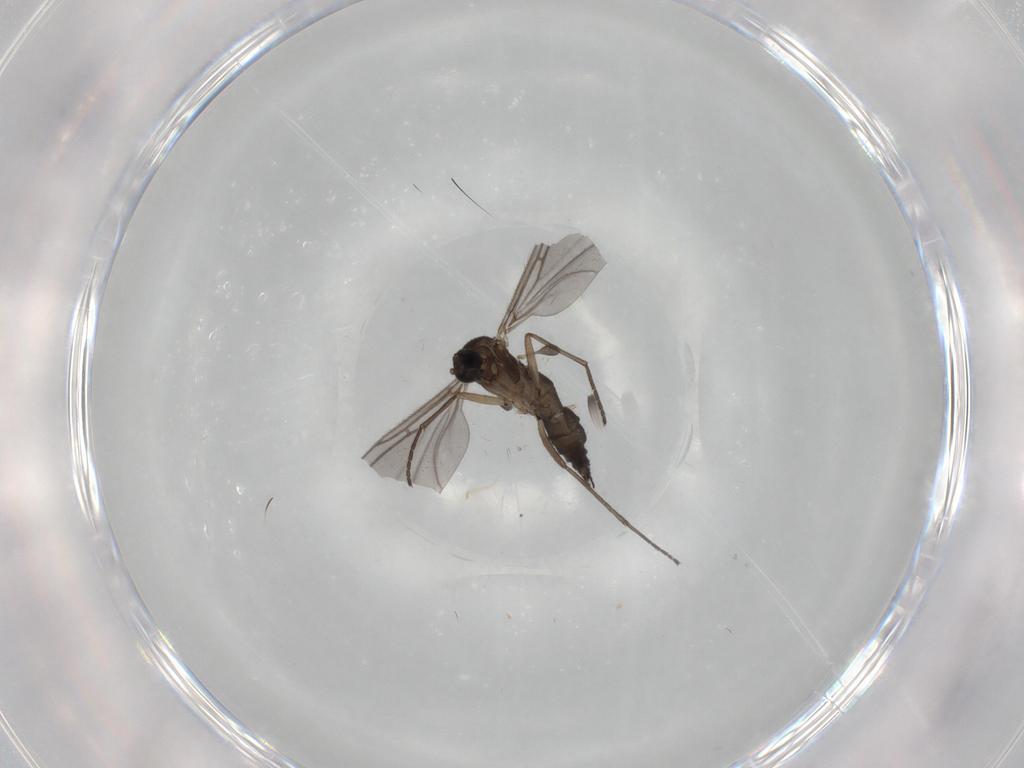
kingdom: Animalia
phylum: Arthropoda
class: Insecta
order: Diptera
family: Sciaridae
